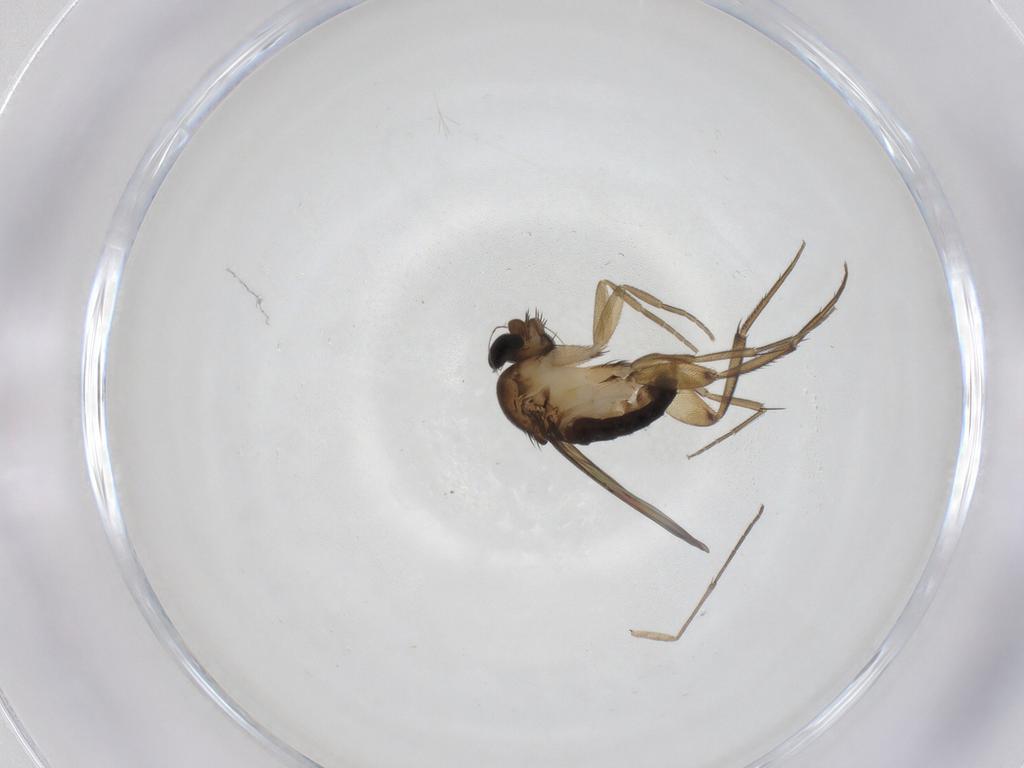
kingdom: Animalia
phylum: Arthropoda
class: Insecta
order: Diptera
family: Phoridae
